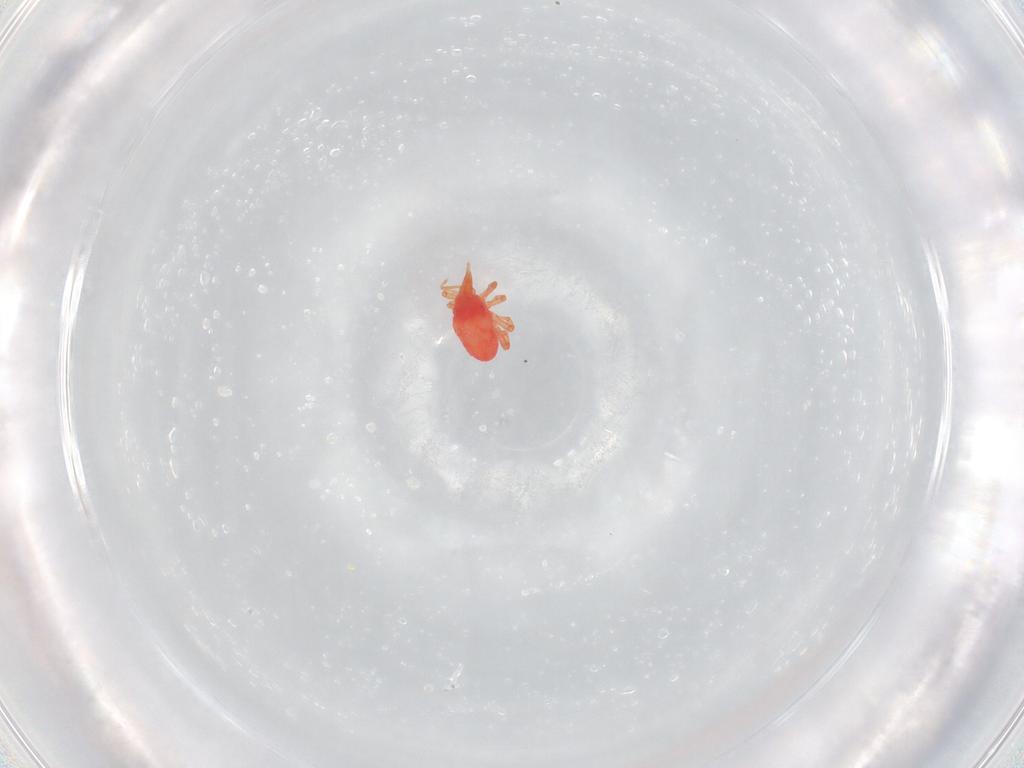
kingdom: Animalia
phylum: Arthropoda
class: Arachnida
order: Trombidiformes
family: Bdellidae
